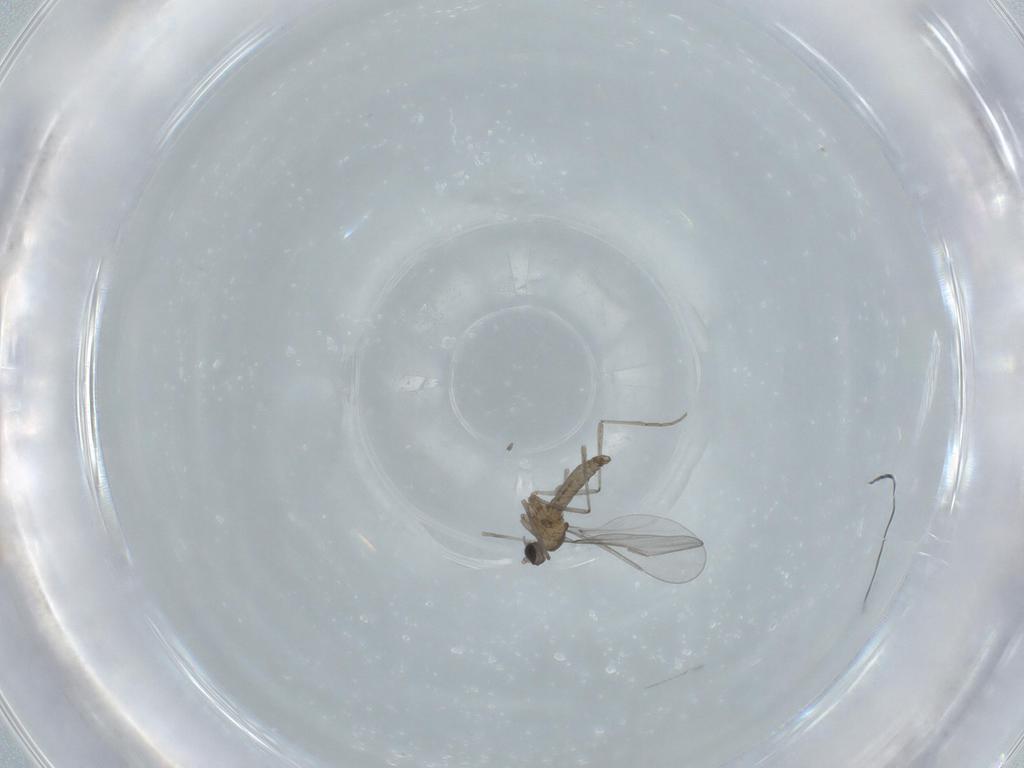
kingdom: Animalia
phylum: Arthropoda
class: Insecta
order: Diptera
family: Cecidomyiidae
